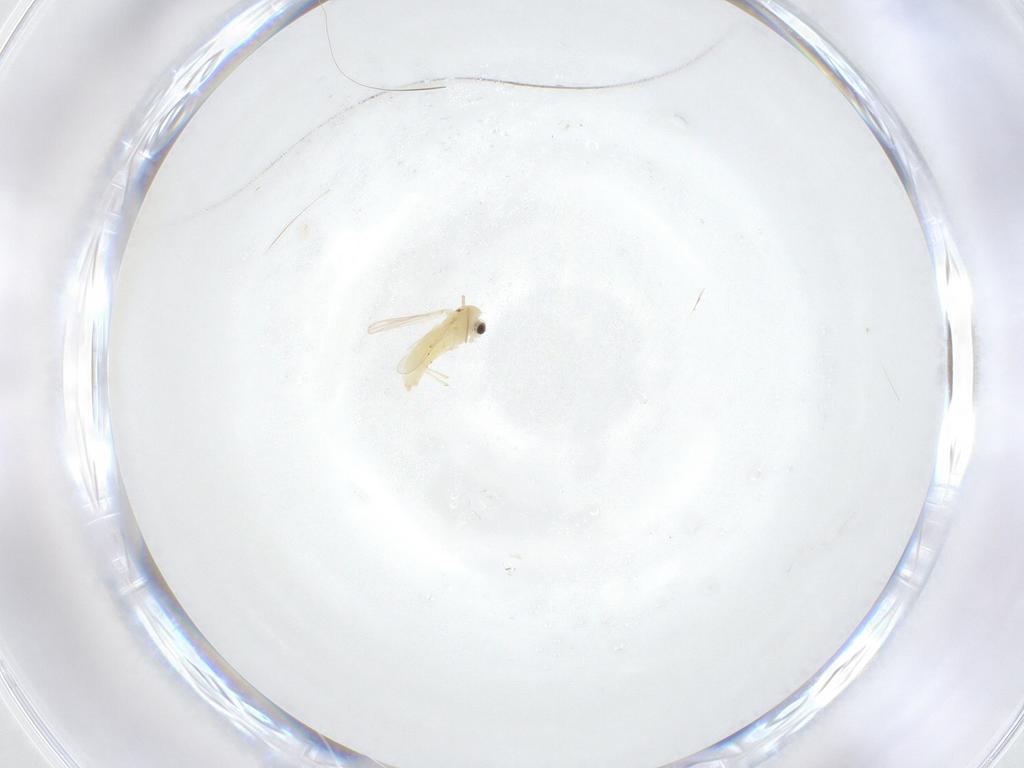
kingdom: Animalia
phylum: Arthropoda
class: Insecta
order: Diptera
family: Chironomidae
